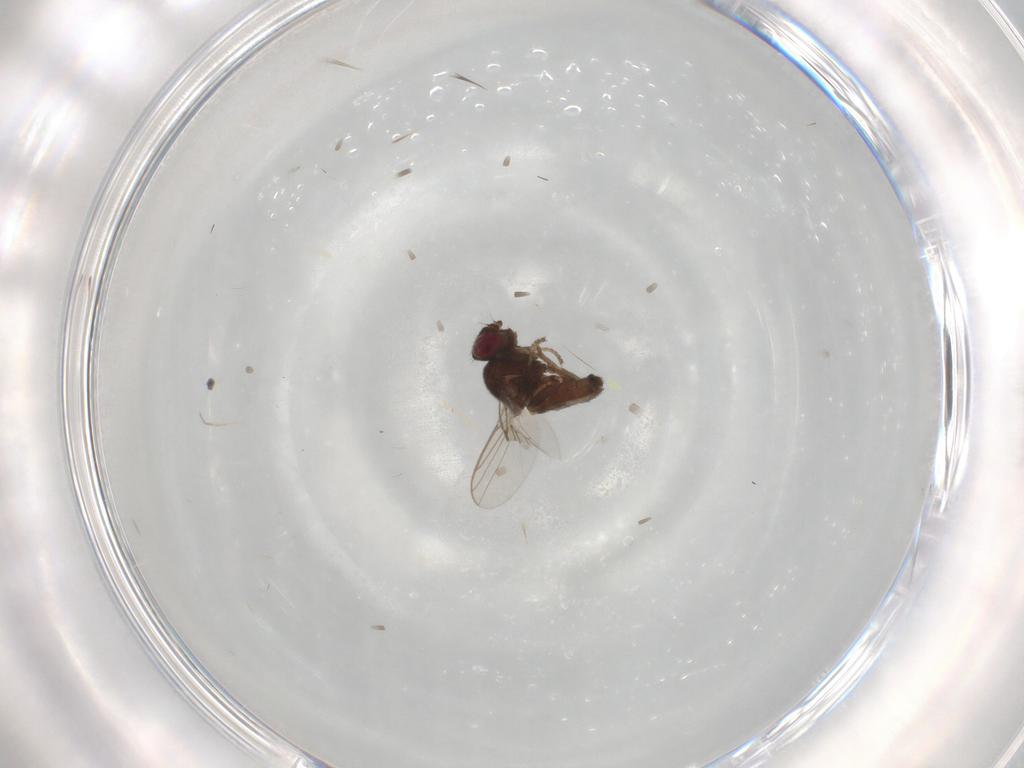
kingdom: Animalia
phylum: Arthropoda
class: Insecta
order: Diptera
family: Chloropidae
